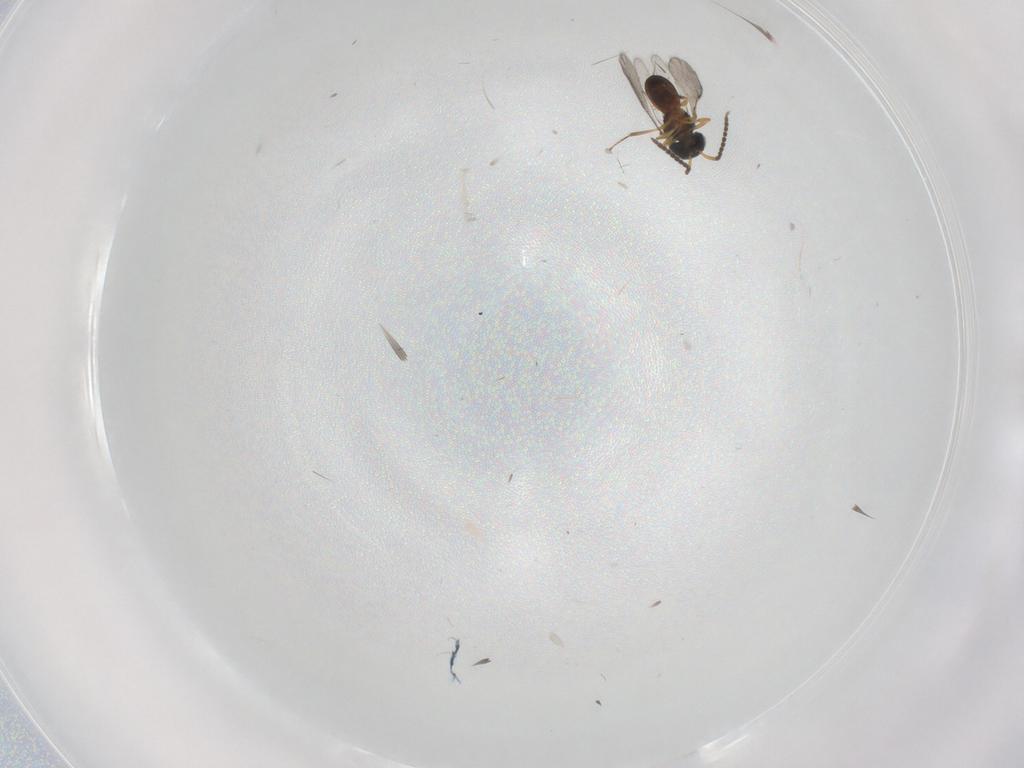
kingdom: Animalia
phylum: Arthropoda
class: Insecta
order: Hymenoptera
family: Scelionidae
